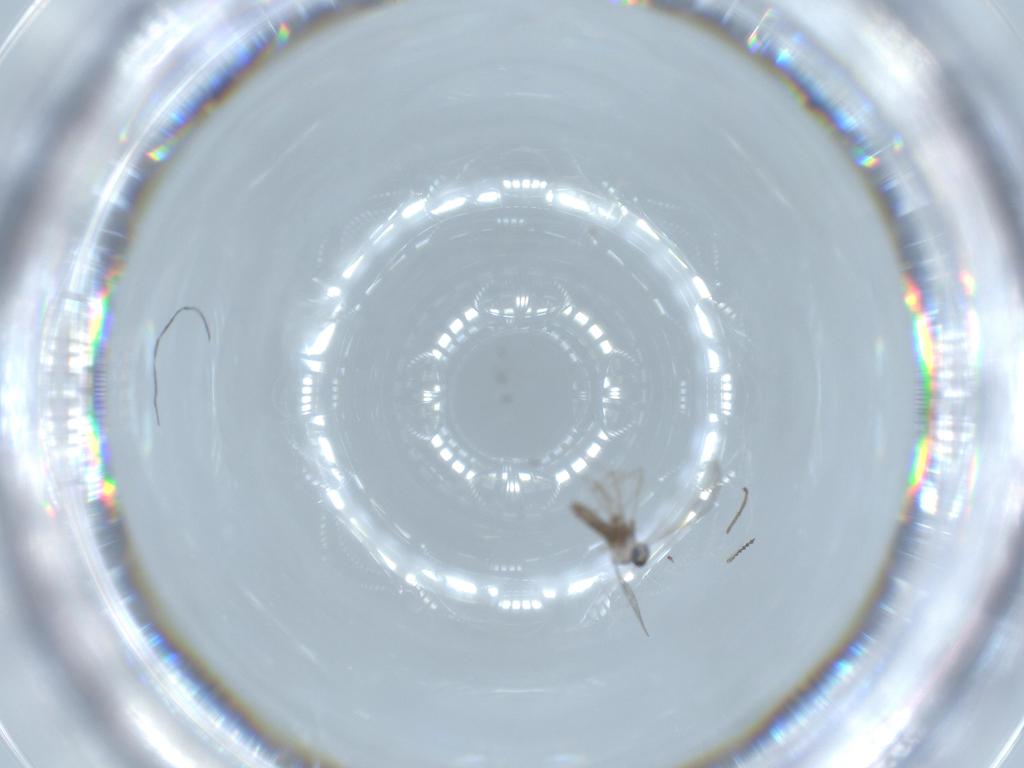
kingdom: Animalia
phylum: Arthropoda
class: Insecta
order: Diptera
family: Cecidomyiidae
